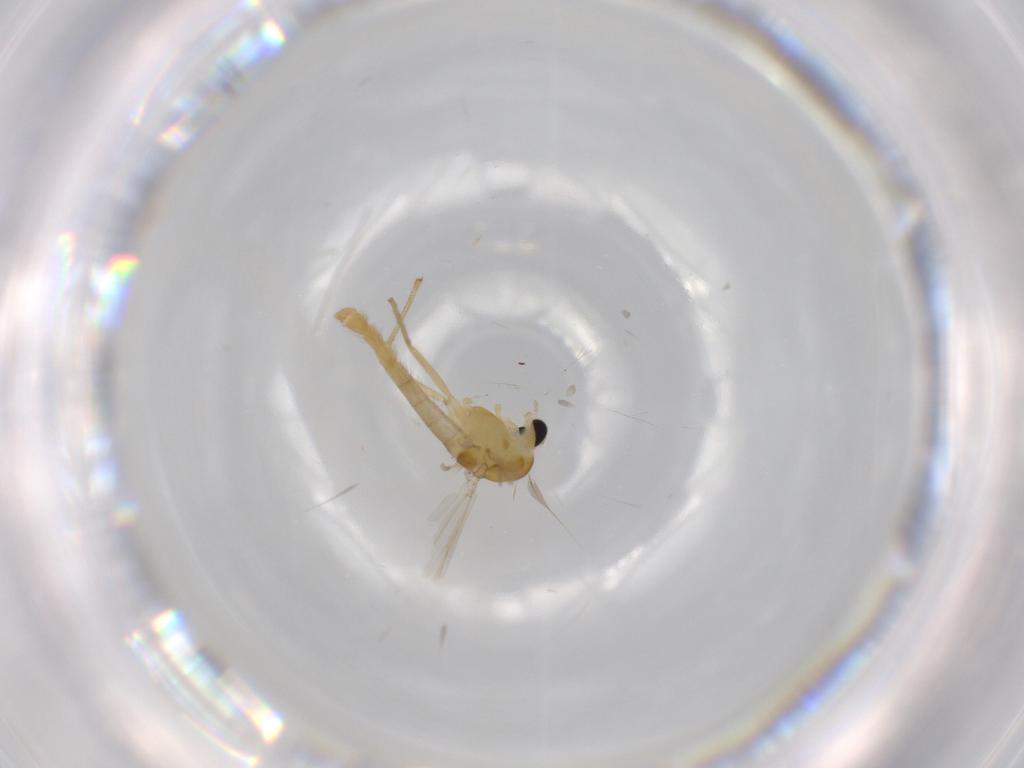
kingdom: Animalia
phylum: Arthropoda
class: Insecta
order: Diptera
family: Chironomidae
